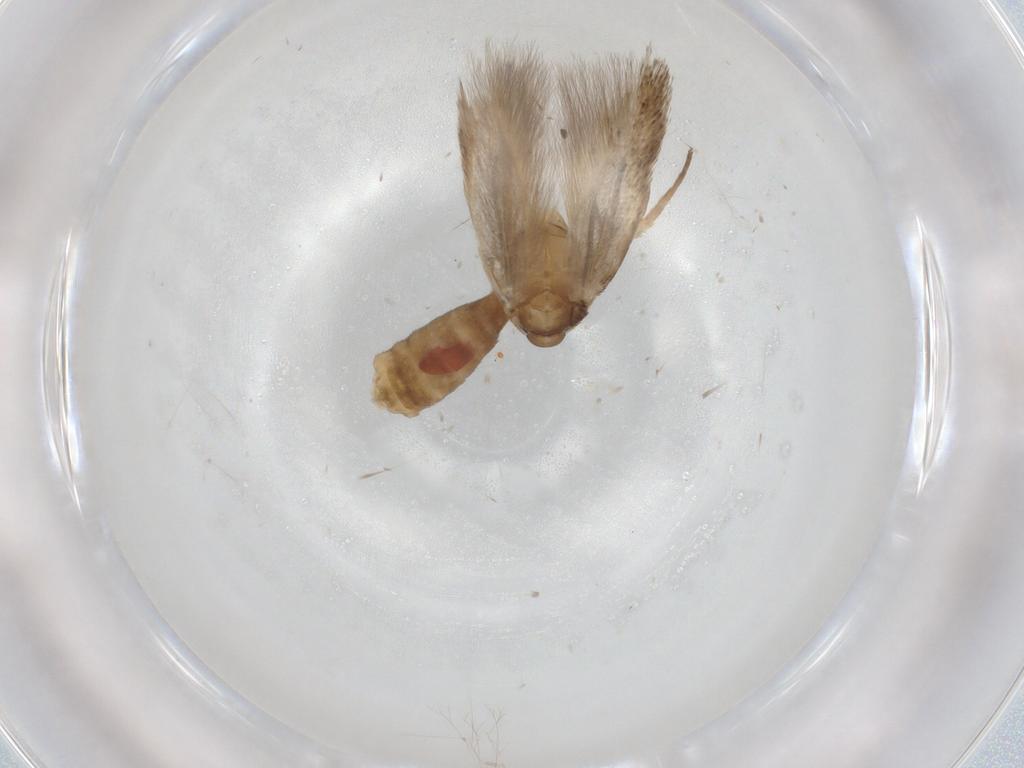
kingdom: Animalia
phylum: Arthropoda
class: Insecta
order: Lepidoptera
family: Cosmopterigidae
